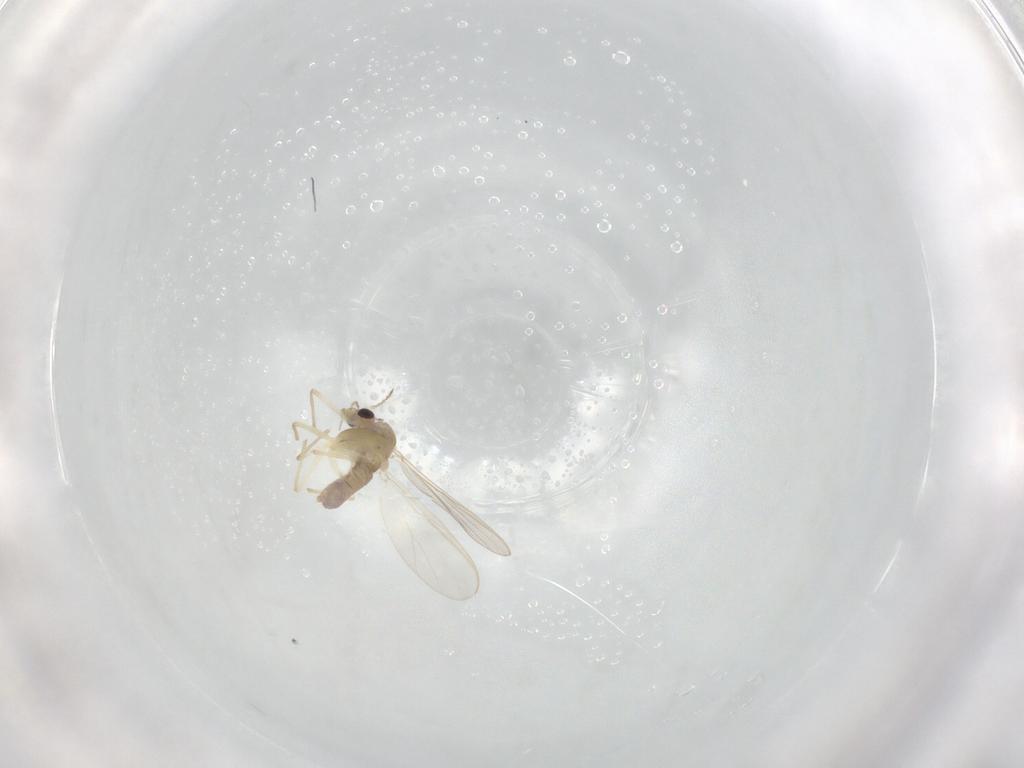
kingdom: Animalia
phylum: Arthropoda
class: Insecta
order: Diptera
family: Chironomidae
